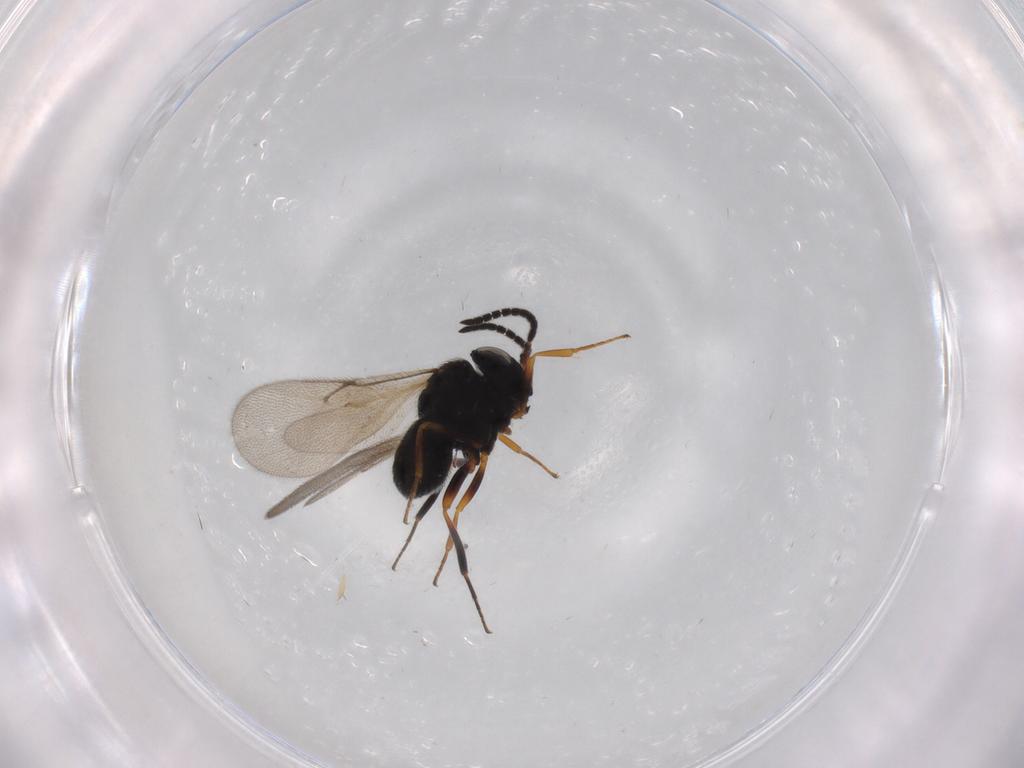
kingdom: Animalia
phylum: Arthropoda
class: Insecta
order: Hymenoptera
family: Scelionidae
